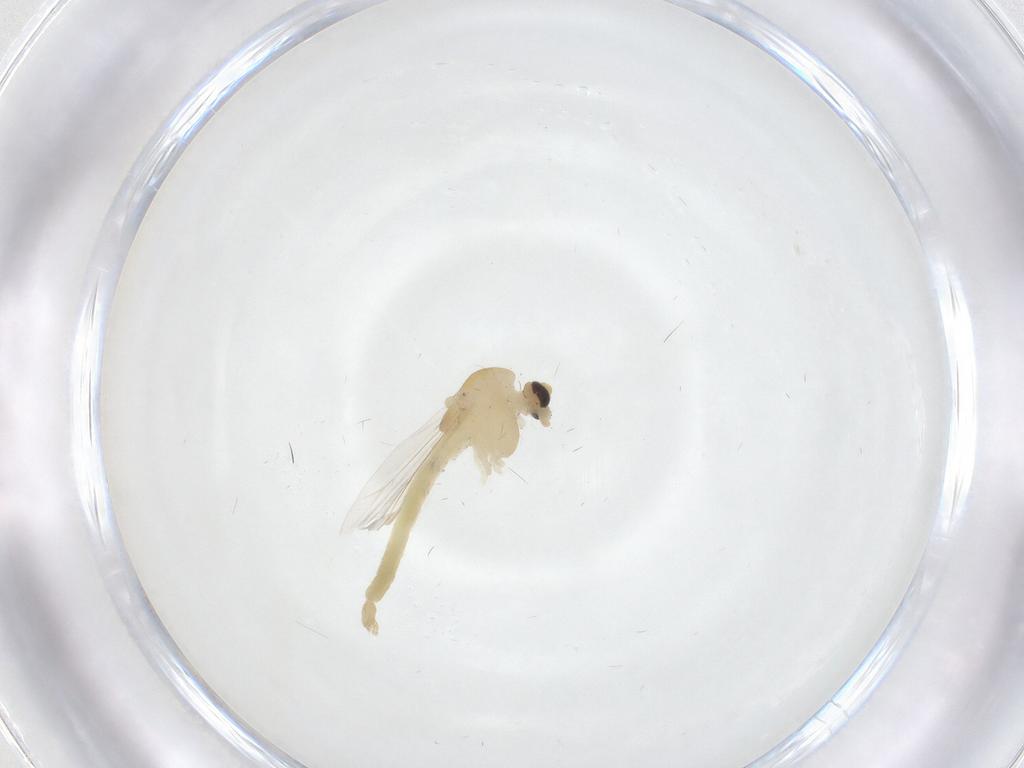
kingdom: Animalia
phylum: Arthropoda
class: Insecta
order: Diptera
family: Chironomidae
